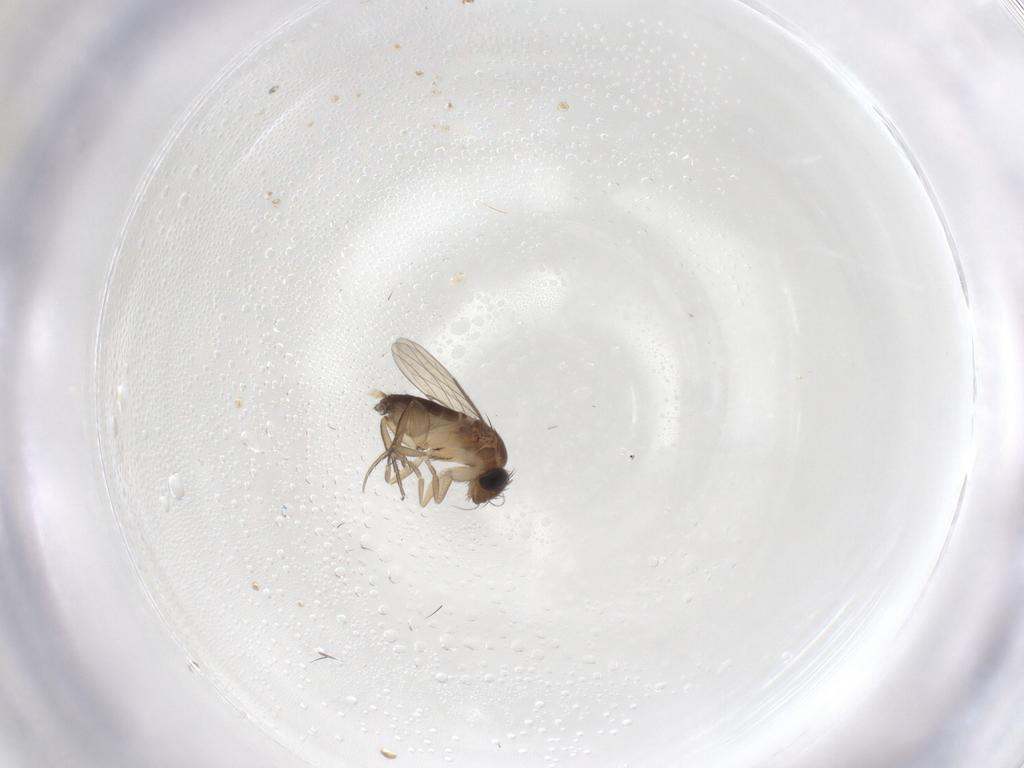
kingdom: Animalia
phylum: Arthropoda
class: Insecta
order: Diptera
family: Phoridae
